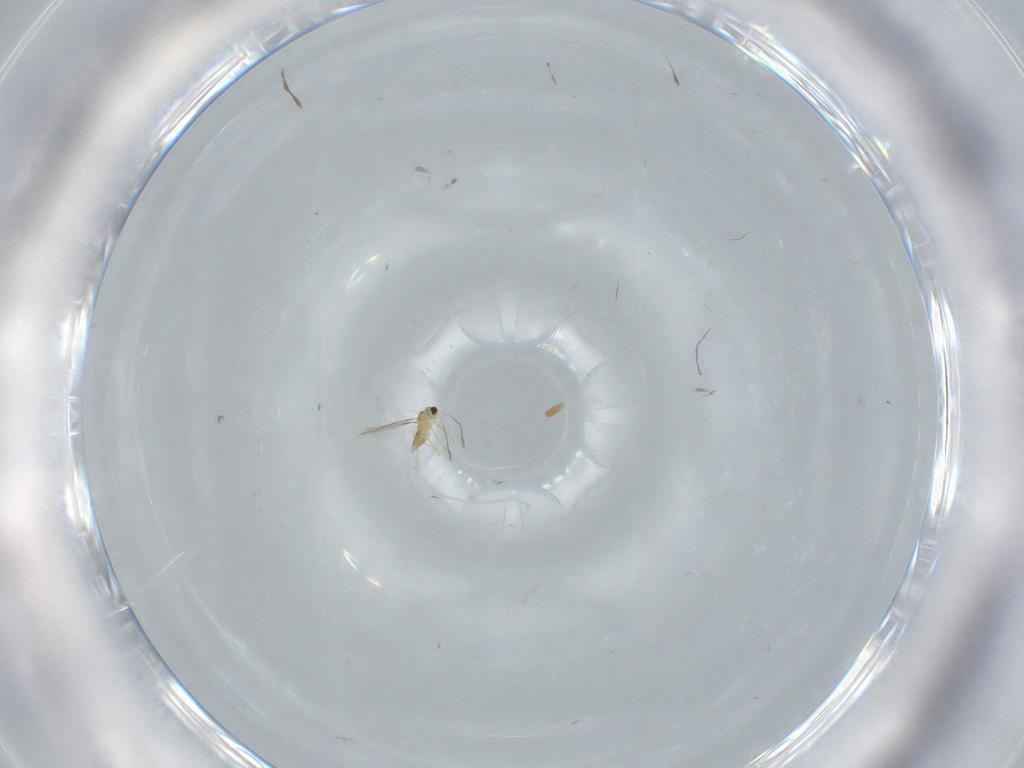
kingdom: Animalia
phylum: Arthropoda
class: Insecta
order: Hymenoptera
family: Mymaridae
